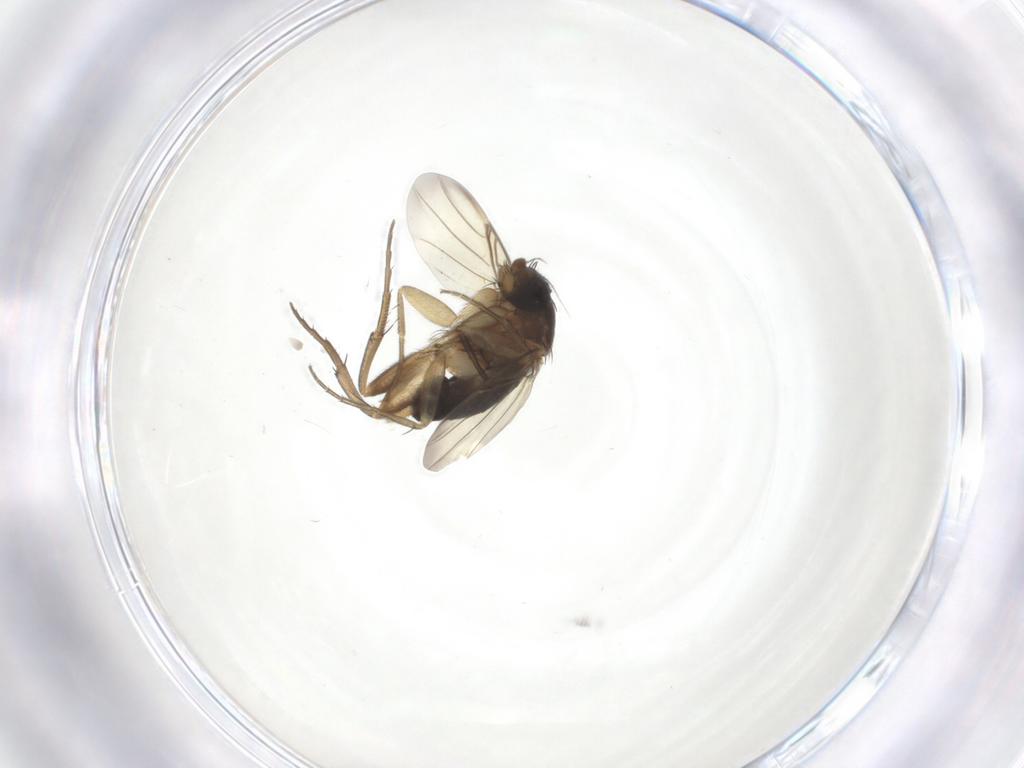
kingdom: Animalia
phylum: Arthropoda
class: Insecta
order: Diptera
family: Phoridae
